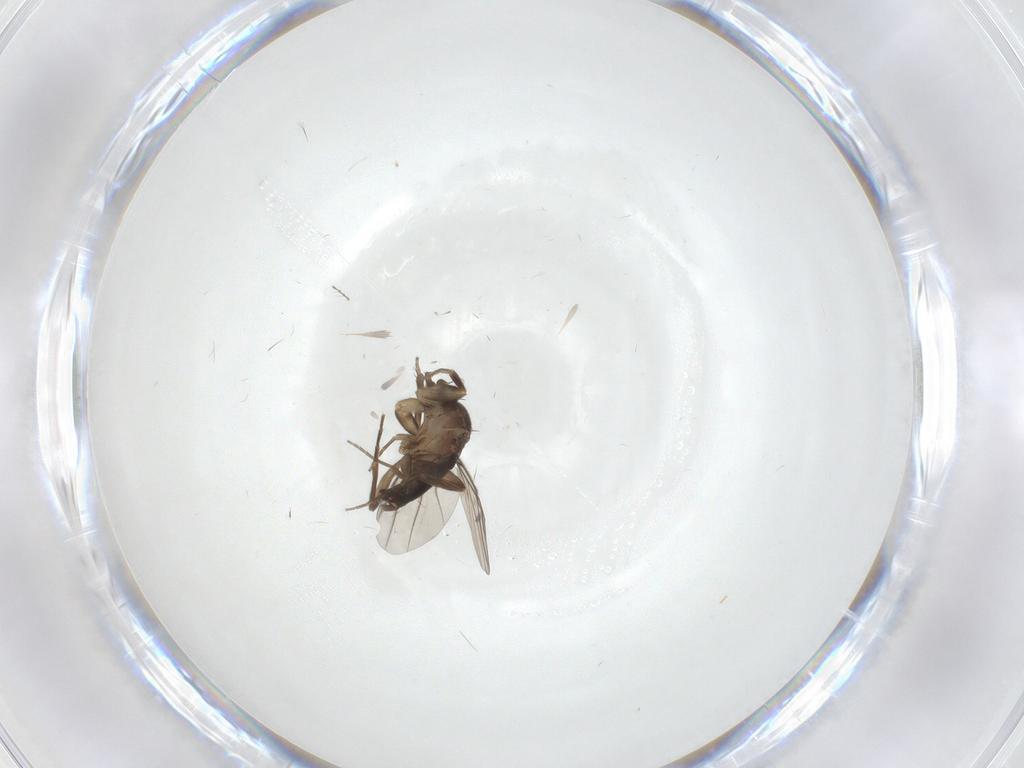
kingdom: Animalia
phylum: Arthropoda
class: Insecta
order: Diptera
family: Phoridae
